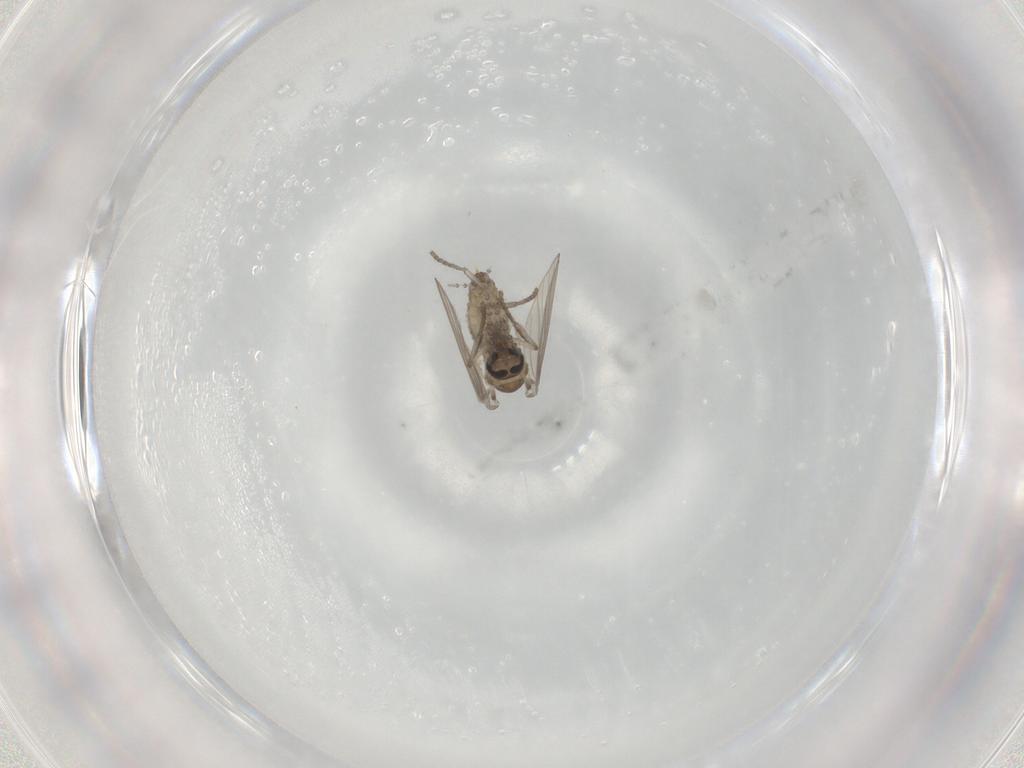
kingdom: Animalia
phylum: Arthropoda
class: Insecta
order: Diptera
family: Psychodidae
